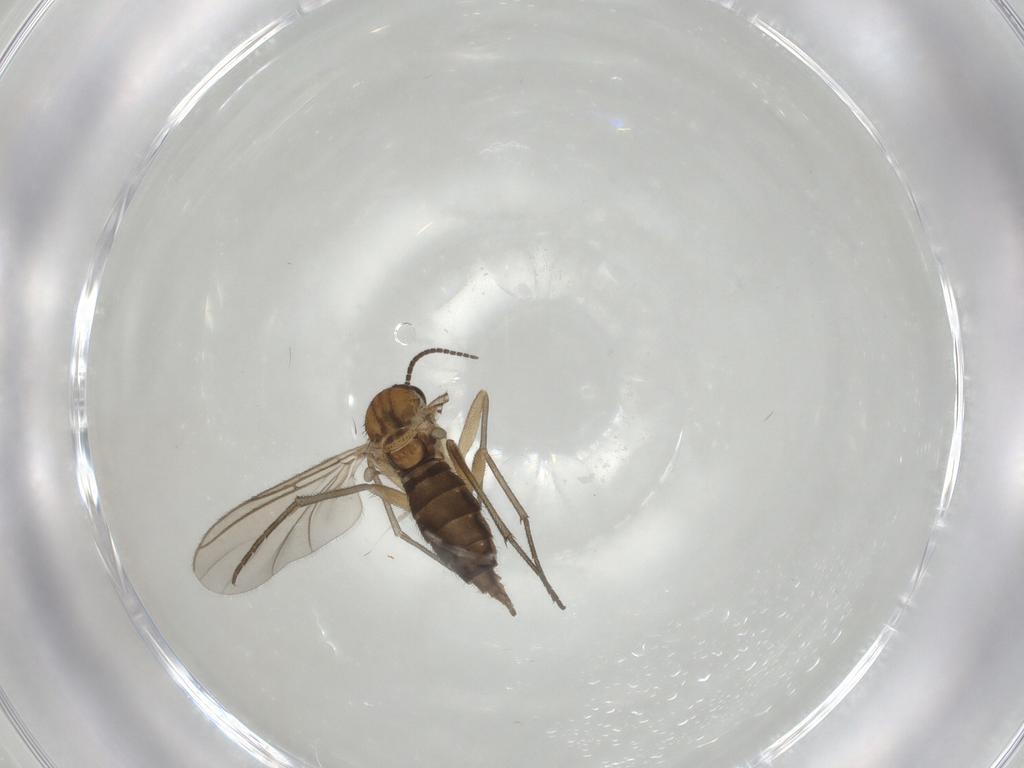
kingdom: Animalia
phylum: Arthropoda
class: Insecta
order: Diptera
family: Sciaridae
